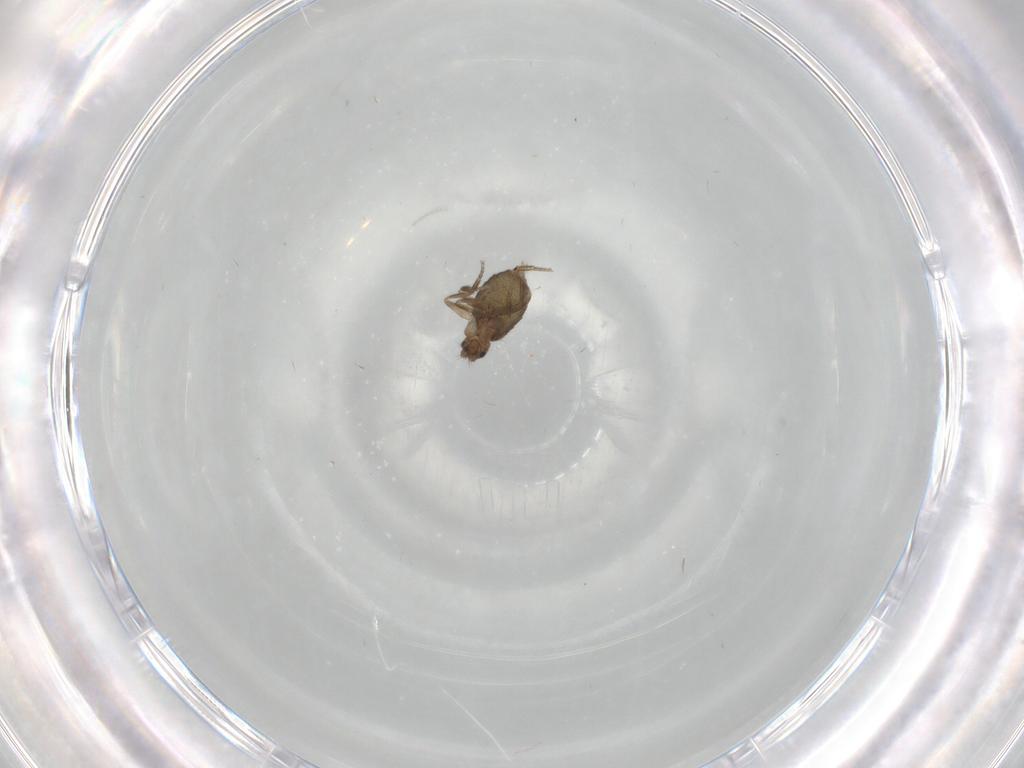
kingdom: Animalia
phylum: Arthropoda
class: Insecta
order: Diptera
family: Phoridae
